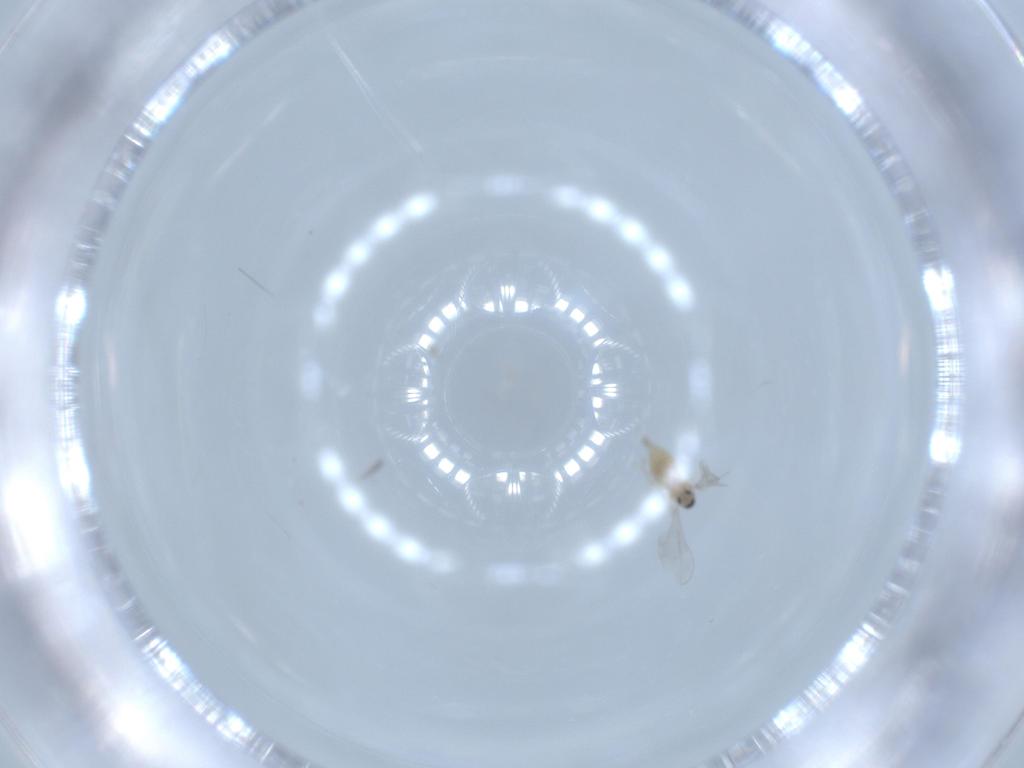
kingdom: Animalia
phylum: Arthropoda
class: Insecta
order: Diptera
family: Cecidomyiidae
